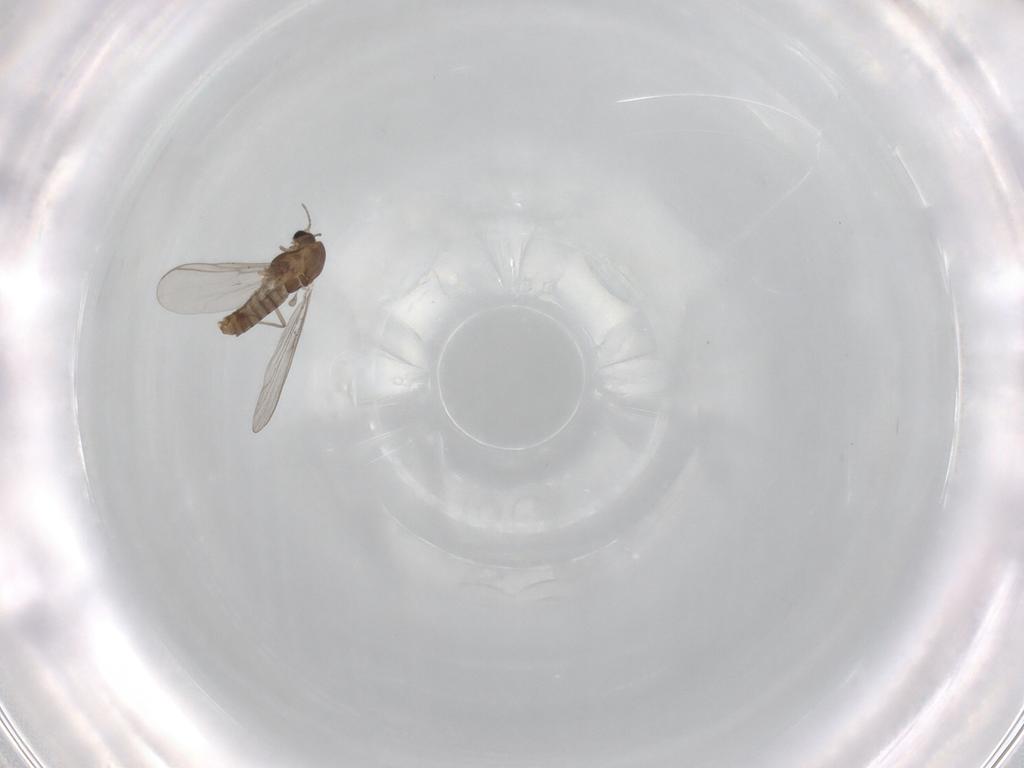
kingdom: Animalia
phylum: Arthropoda
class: Insecta
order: Diptera
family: Chironomidae
